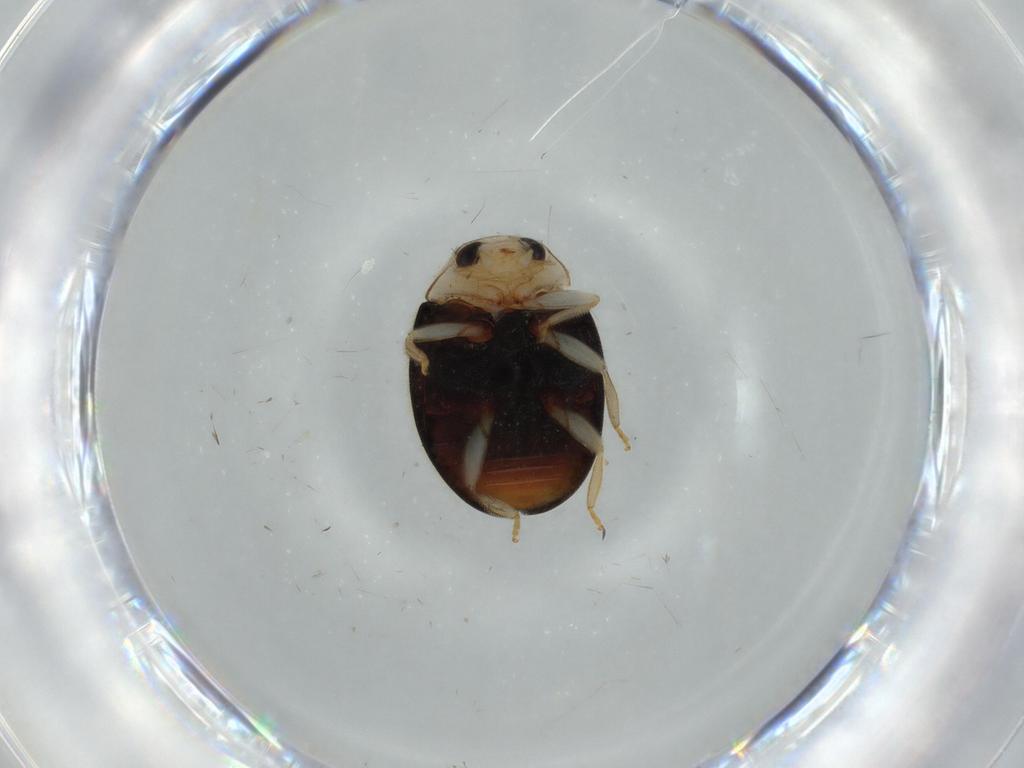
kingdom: Animalia
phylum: Arthropoda
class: Insecta
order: Coleoptera
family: Coccinellidae
